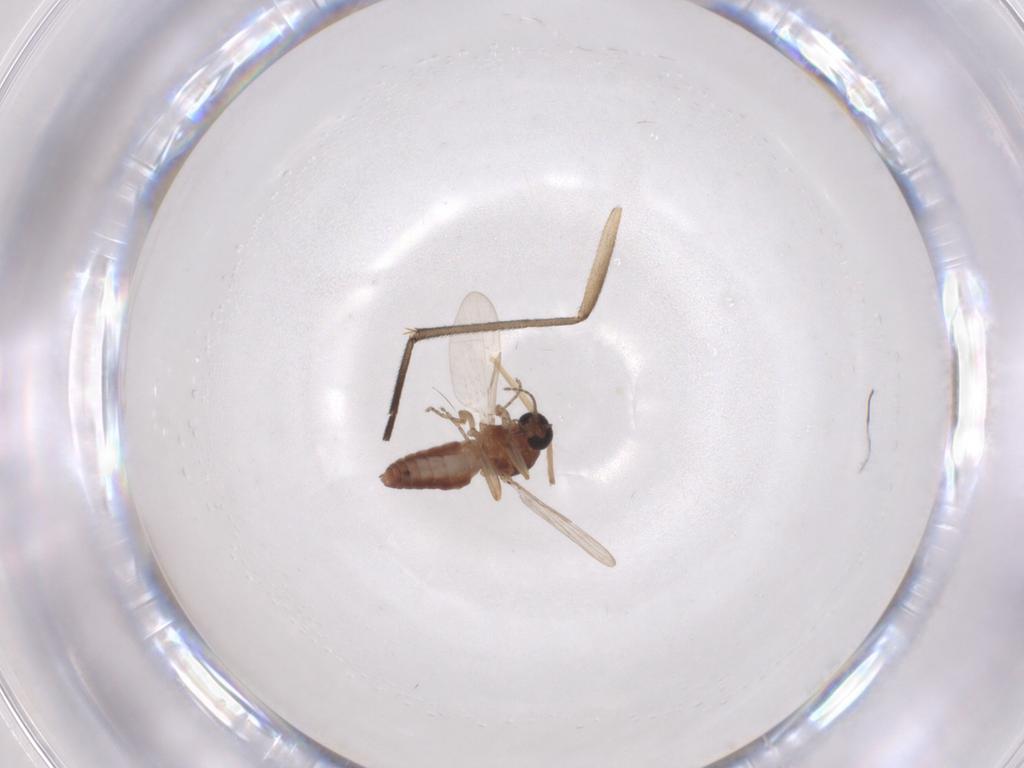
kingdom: Animalia
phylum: Arthropoda
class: Insecta
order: Diptera
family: Ceratopogonidae
